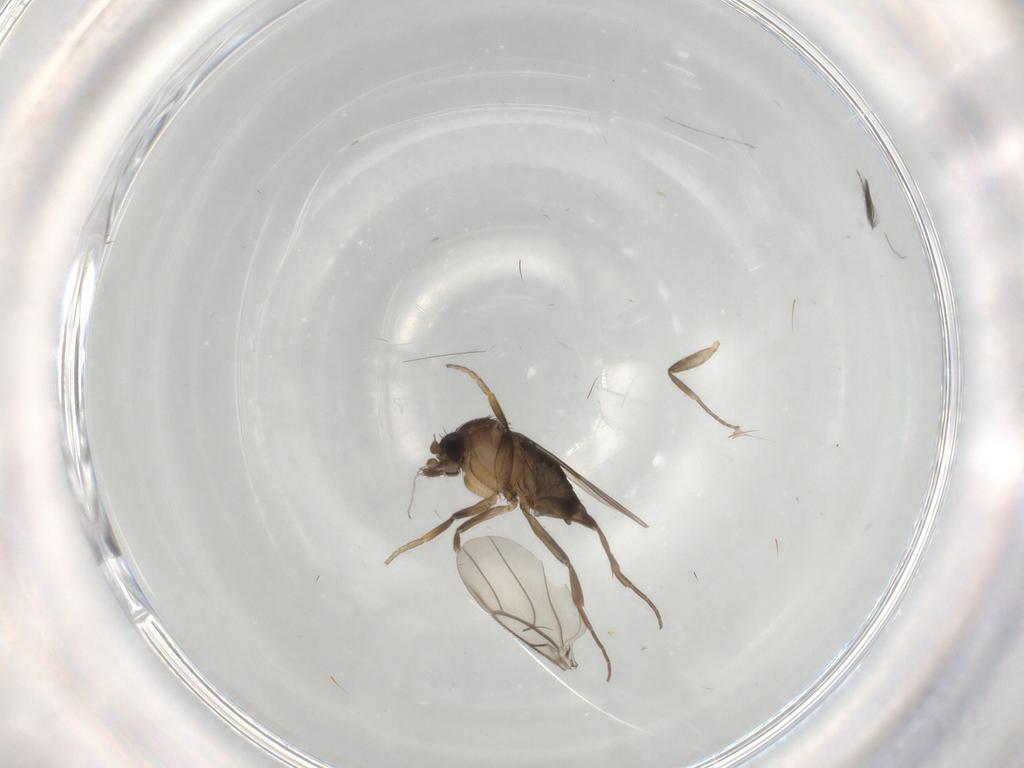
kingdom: Animalia
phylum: Arthropoda
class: Insecta
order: Diptera
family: Phoridae
